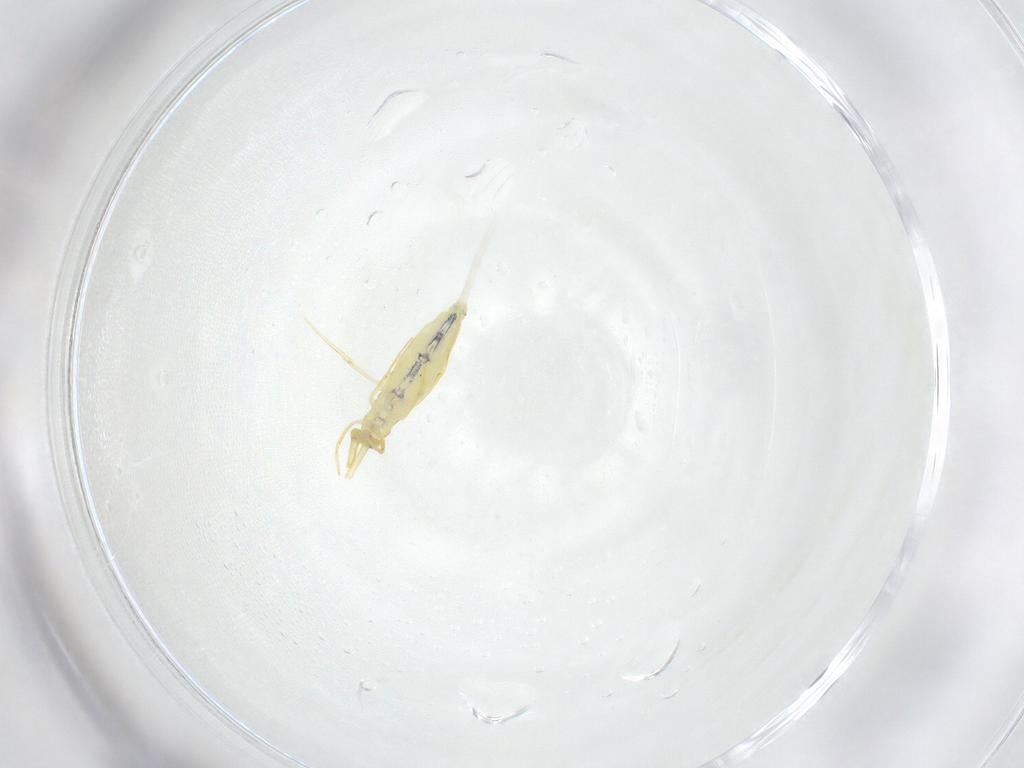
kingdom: Animalia
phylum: Arthropoda
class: Collembola
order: Entomobryomorpha
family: Entomobryidae
